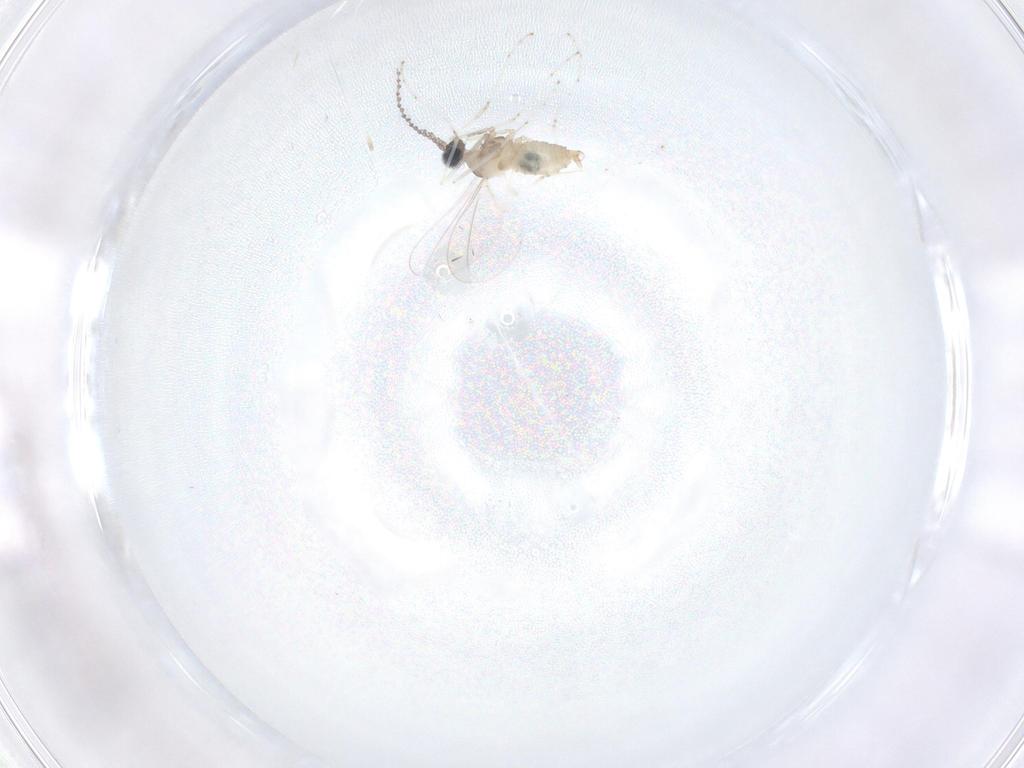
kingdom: Animalia
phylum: Arthropoda
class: Insecta
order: Diptera
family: Cecidomyiidae
